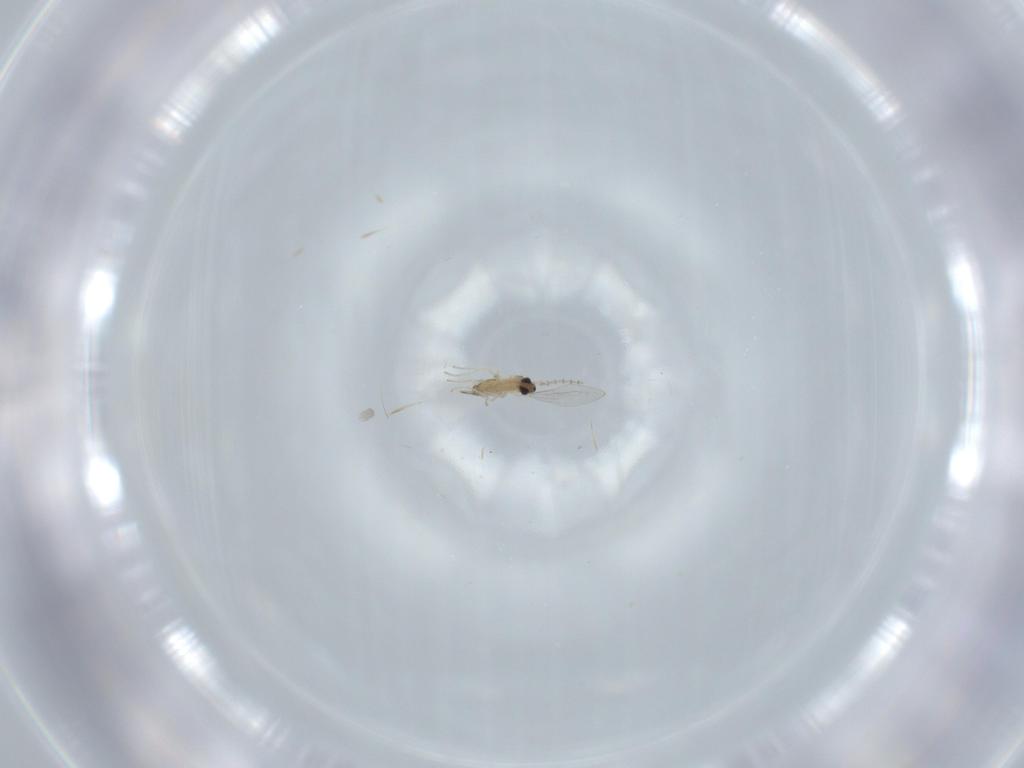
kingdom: Animalia
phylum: Arthropoda
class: Insecta
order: Diptera
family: Cecidomyiidae
